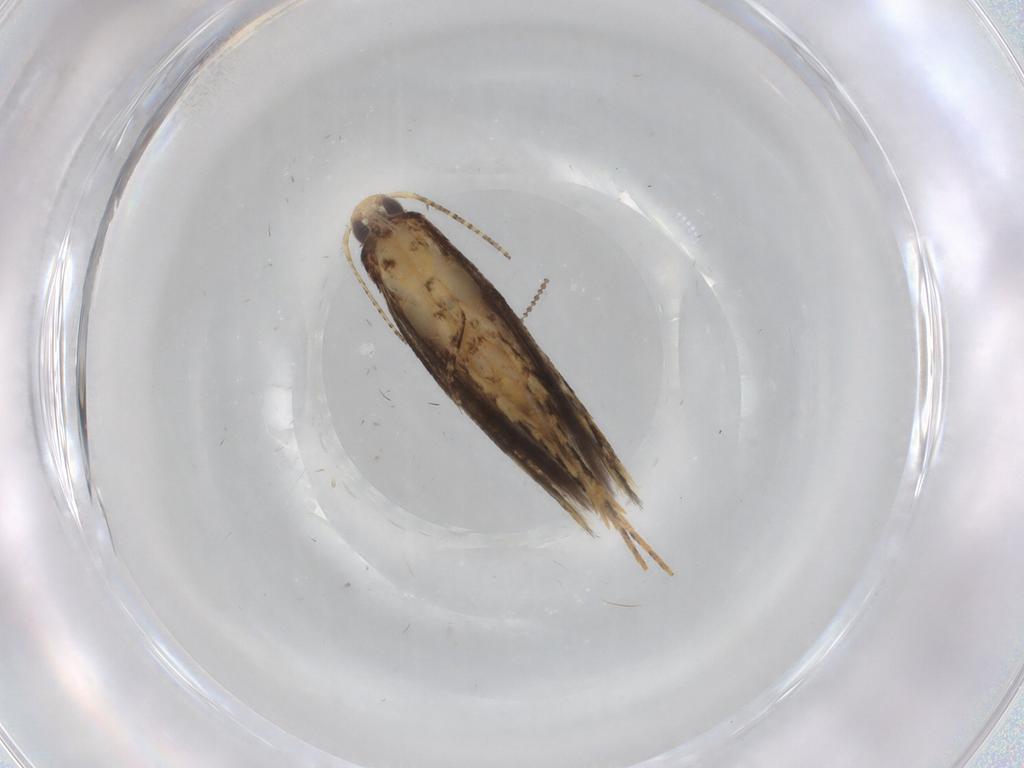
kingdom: Animalia
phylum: Arthropoda
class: Insecta
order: Lepidoptera
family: Gelechiidae
